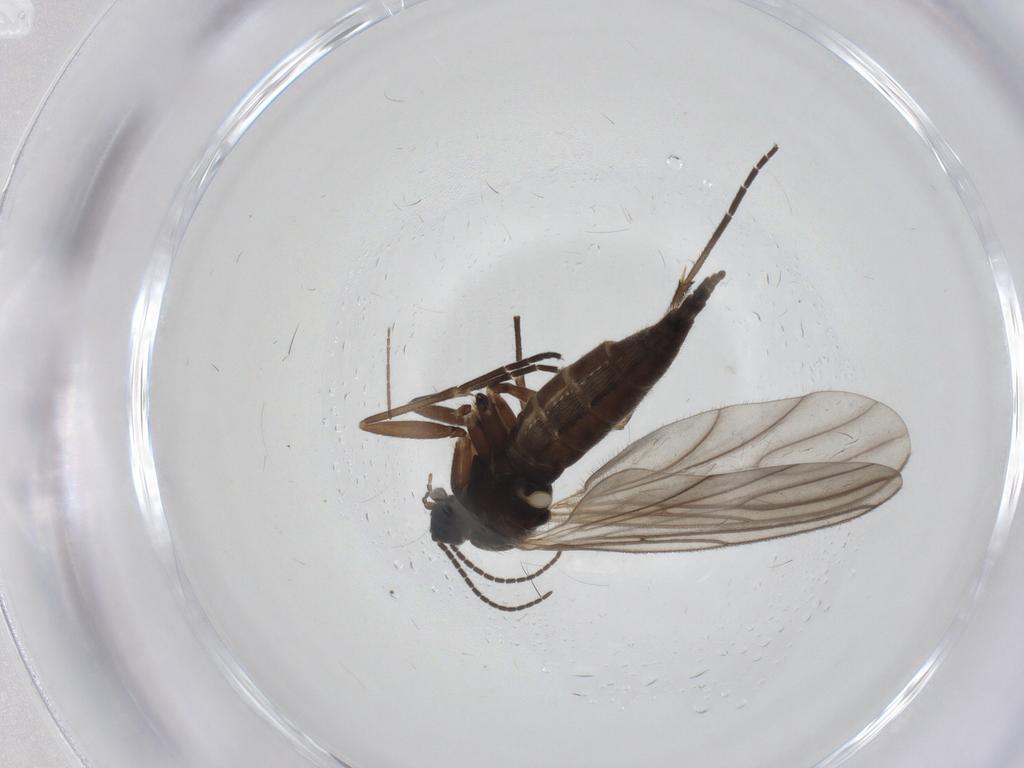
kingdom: Animalia
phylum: Arthropoda
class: Insecta
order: Diptera
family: Sciaridae
